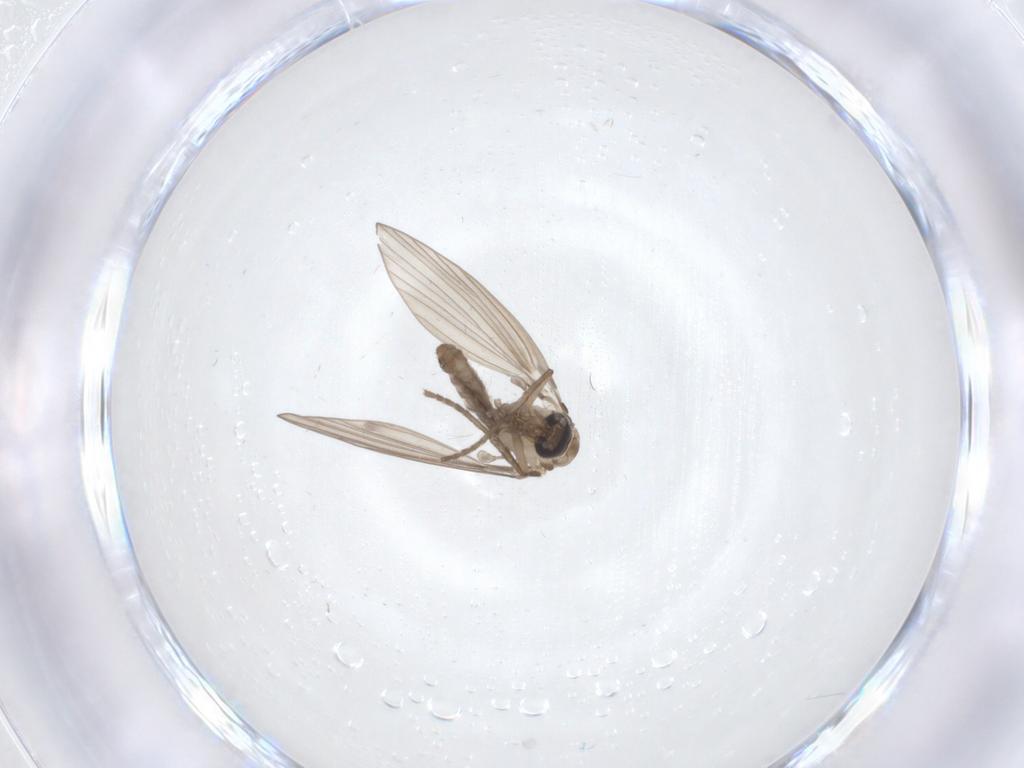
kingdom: Animalia
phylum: Arthropoda
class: Insecta
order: Diptera
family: Psychodidae
